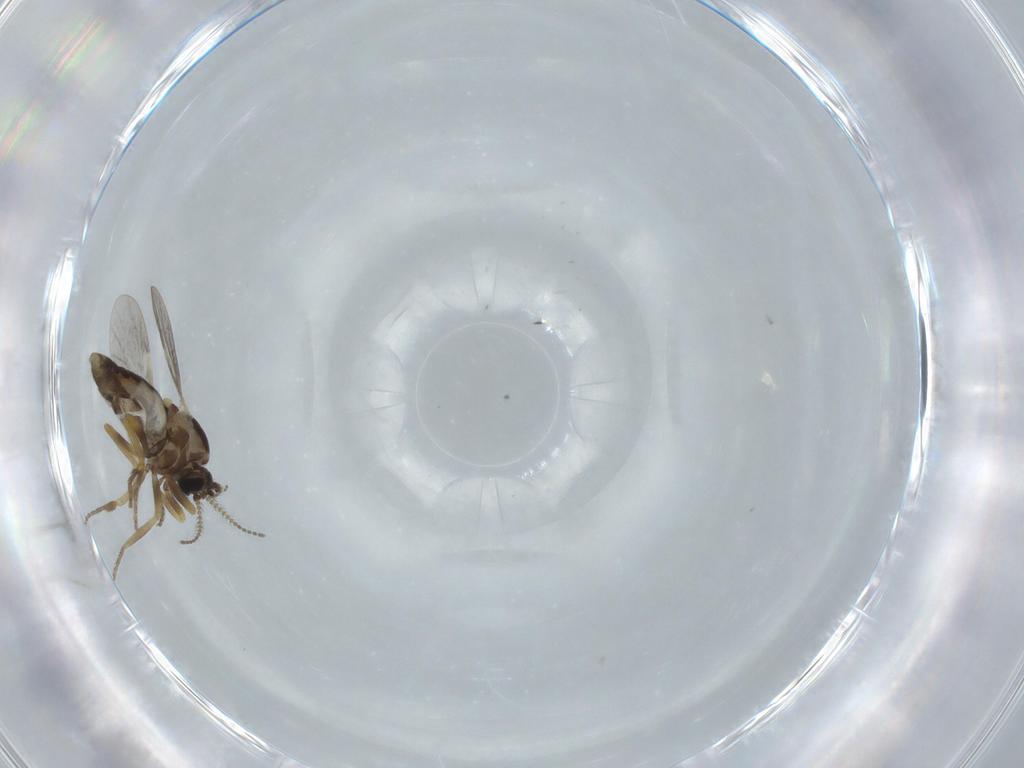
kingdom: Animalia
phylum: Arthropoda
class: Insecta
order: Diptera
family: Ceratopogonidae
